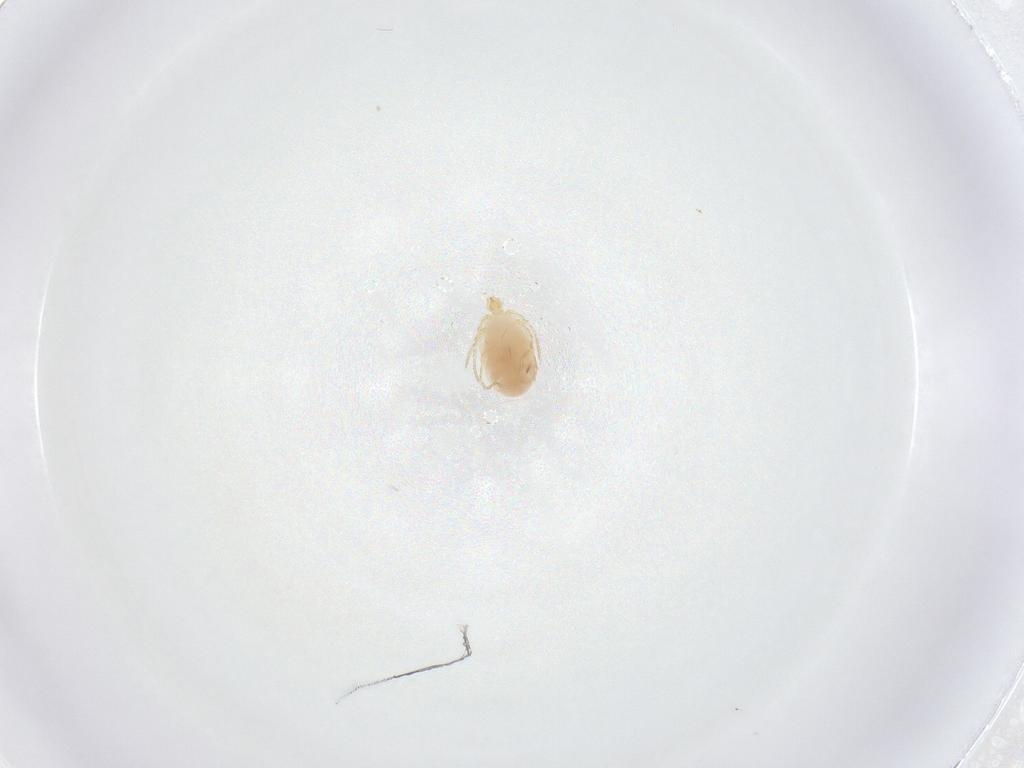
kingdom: Animalia
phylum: Arthropoda
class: Arachnida
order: Trombidiformes
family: Erythraeidae
